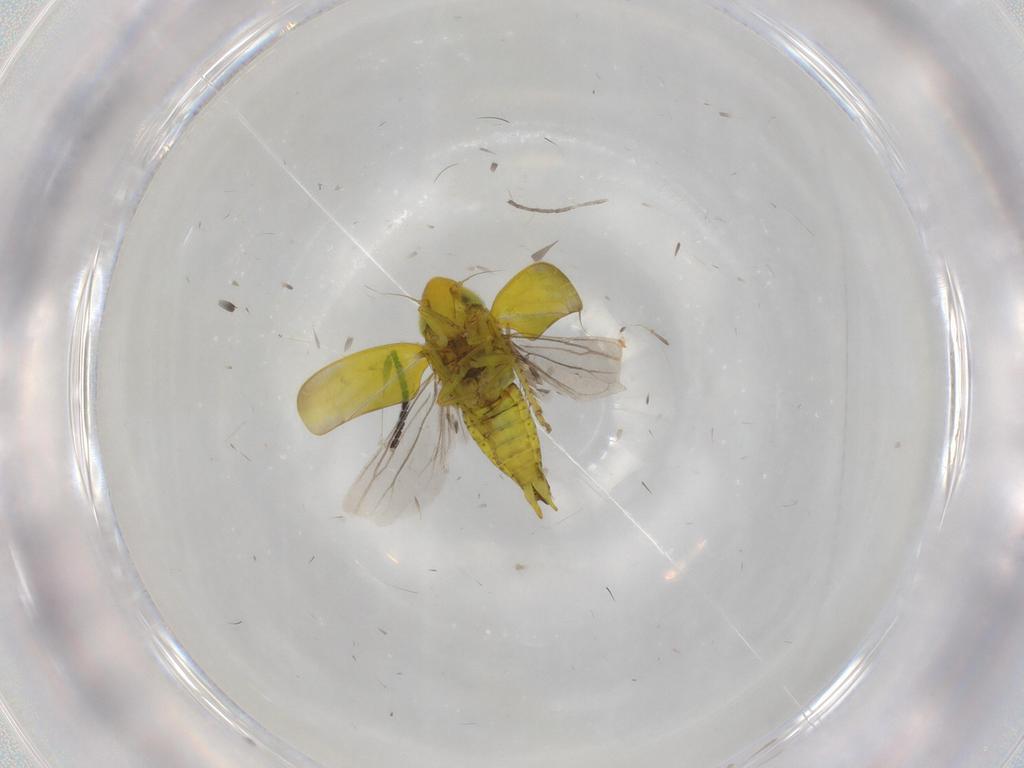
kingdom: Animalia
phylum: Arthropoda
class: Insecta
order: Hemiptera
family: Cicadellidae
